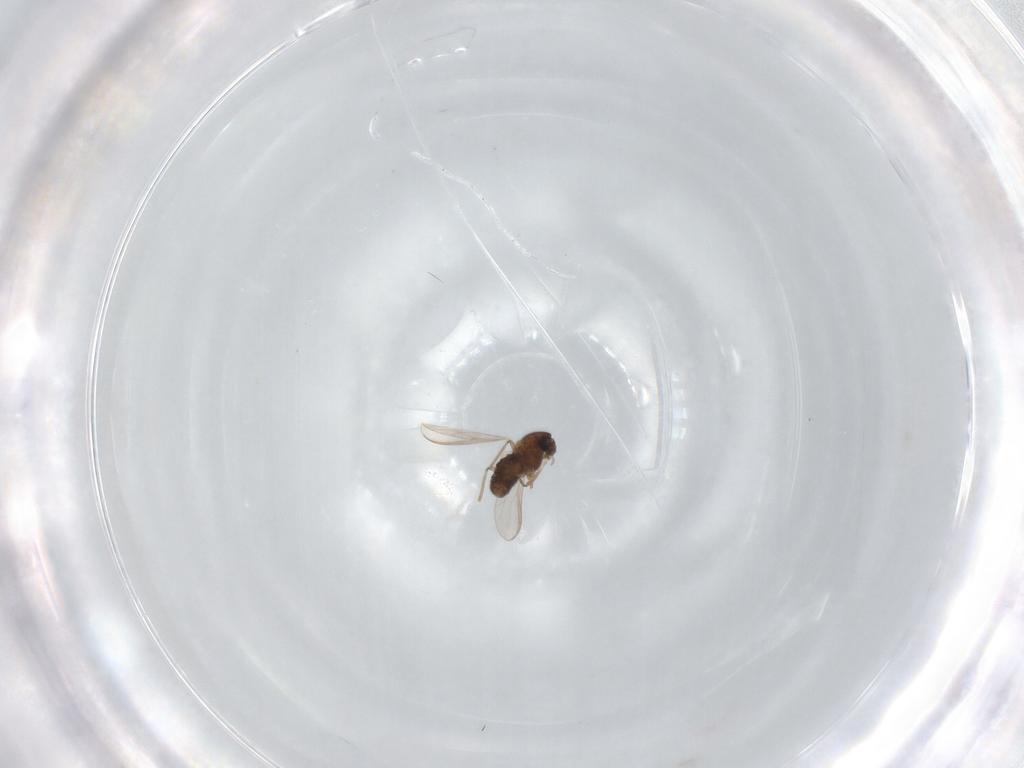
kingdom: Animalia
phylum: Arthropoda
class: Insecta
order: Diptera
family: Chironomidae
